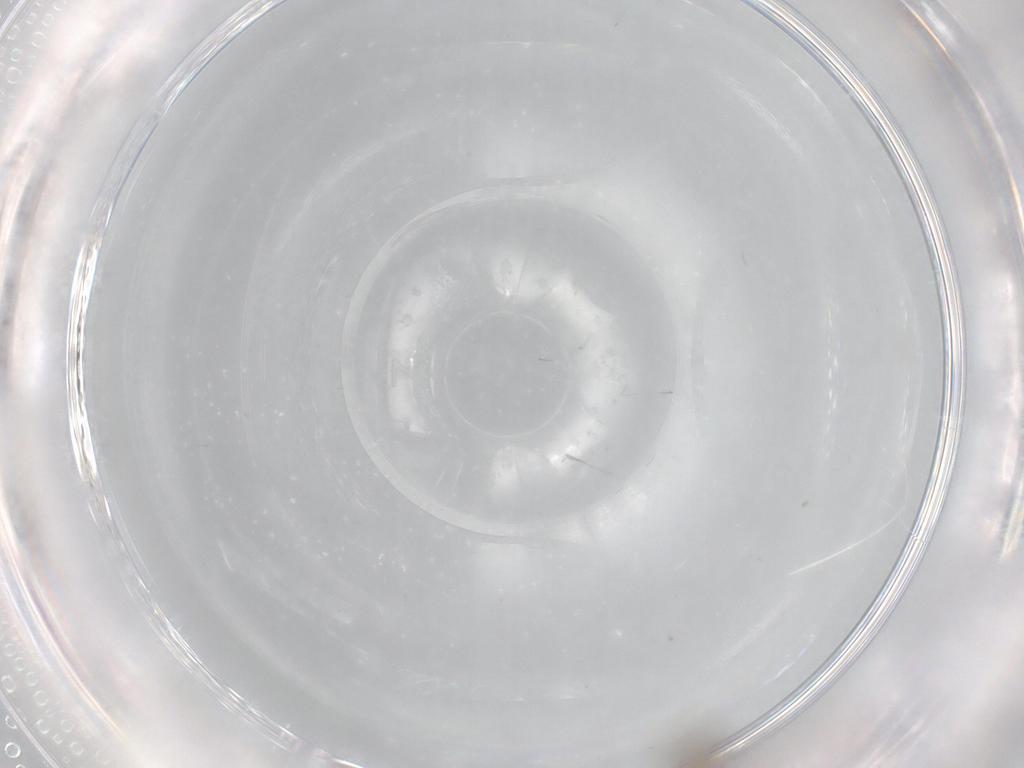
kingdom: Animalia
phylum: Arthropoda
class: Insecta
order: Diptera
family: Cecidomyiidae
